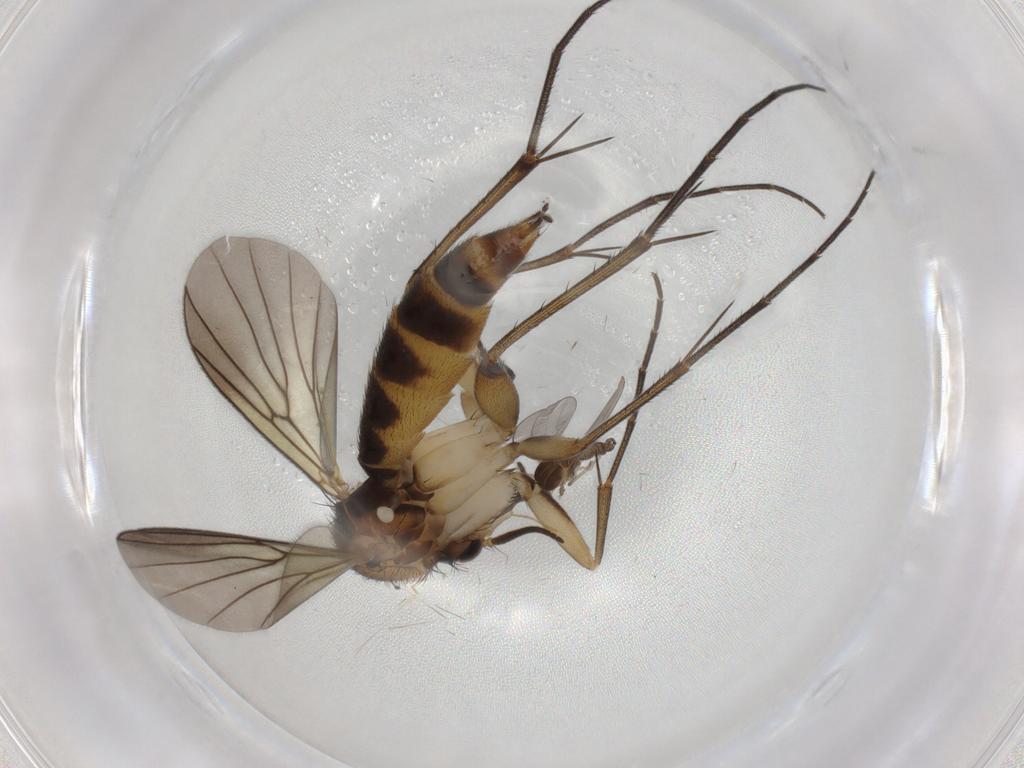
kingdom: Animalia
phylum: Arthropoda
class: Insecta
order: Diptera
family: Cecidomyiidae
